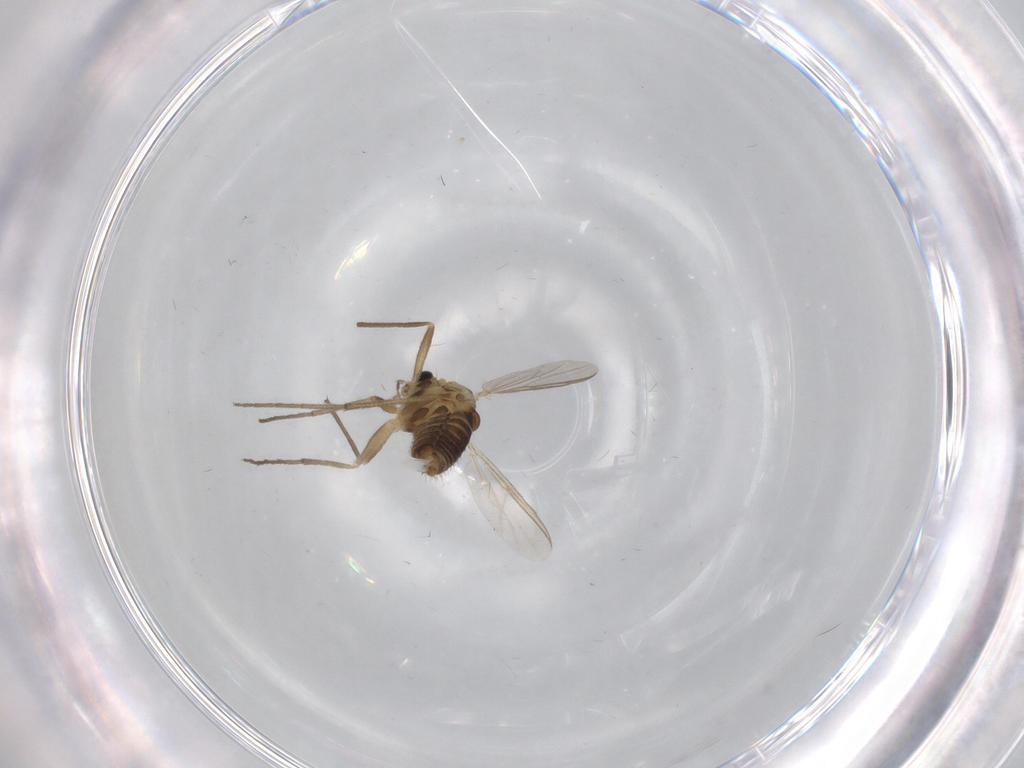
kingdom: Animalia
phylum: Arthropoda
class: Insecta
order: Diptera
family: Chironomidae
